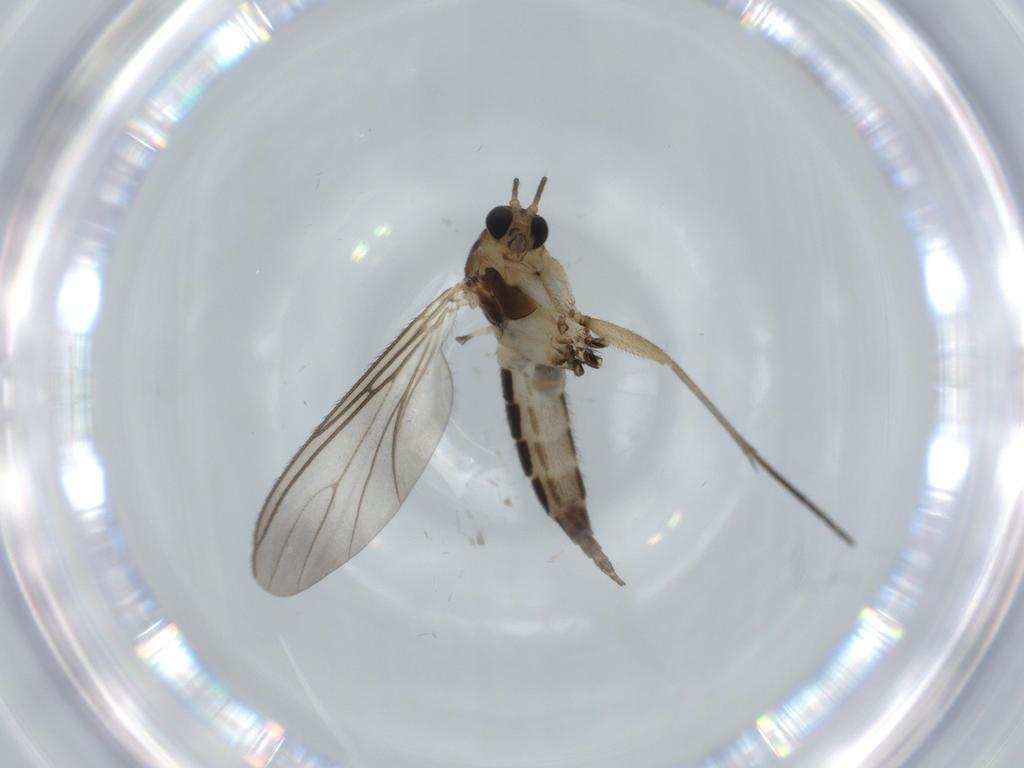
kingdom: Animalia
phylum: Arthropoda
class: Insecta
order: Diptera
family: Sciaridae
